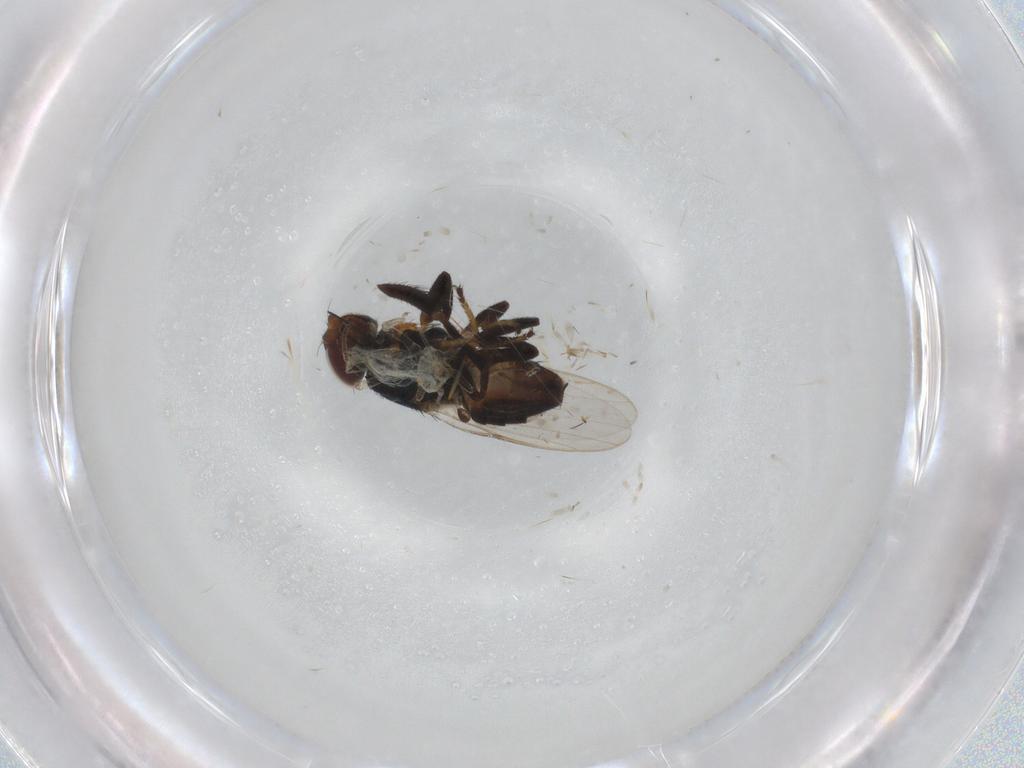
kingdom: Animalia
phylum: Arthropoda
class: Insecta
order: Diptera
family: Chloropidae
